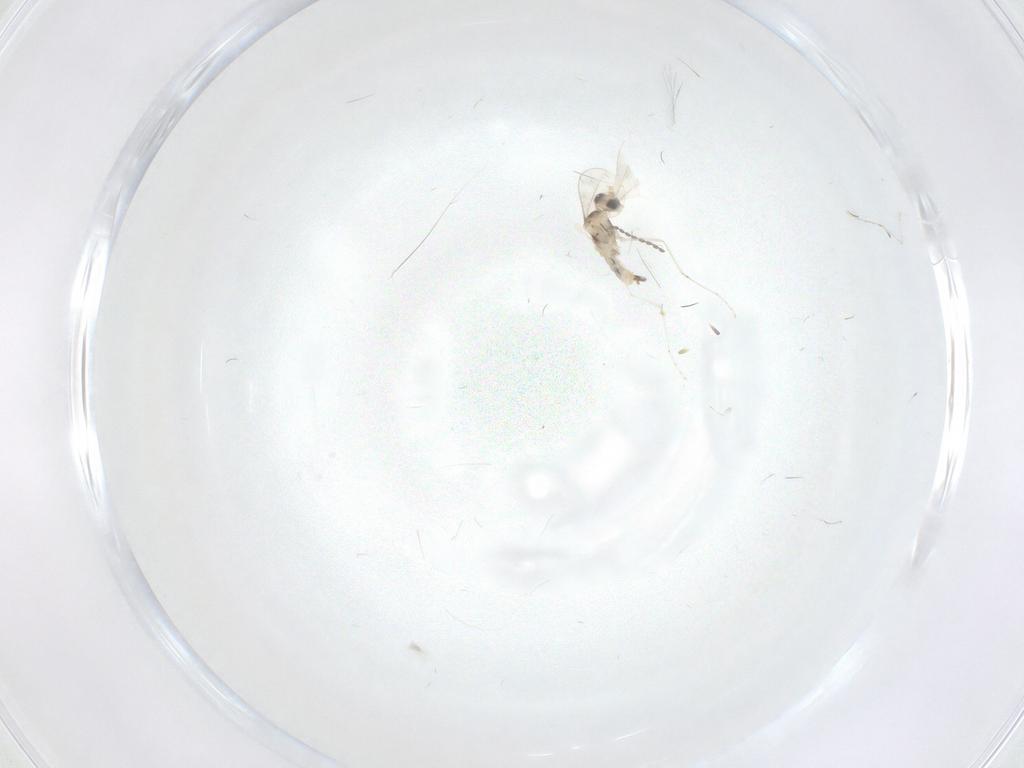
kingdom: Animalia
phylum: Arthropoda
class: Insecta
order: Diptera
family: Cecidomyiidae
